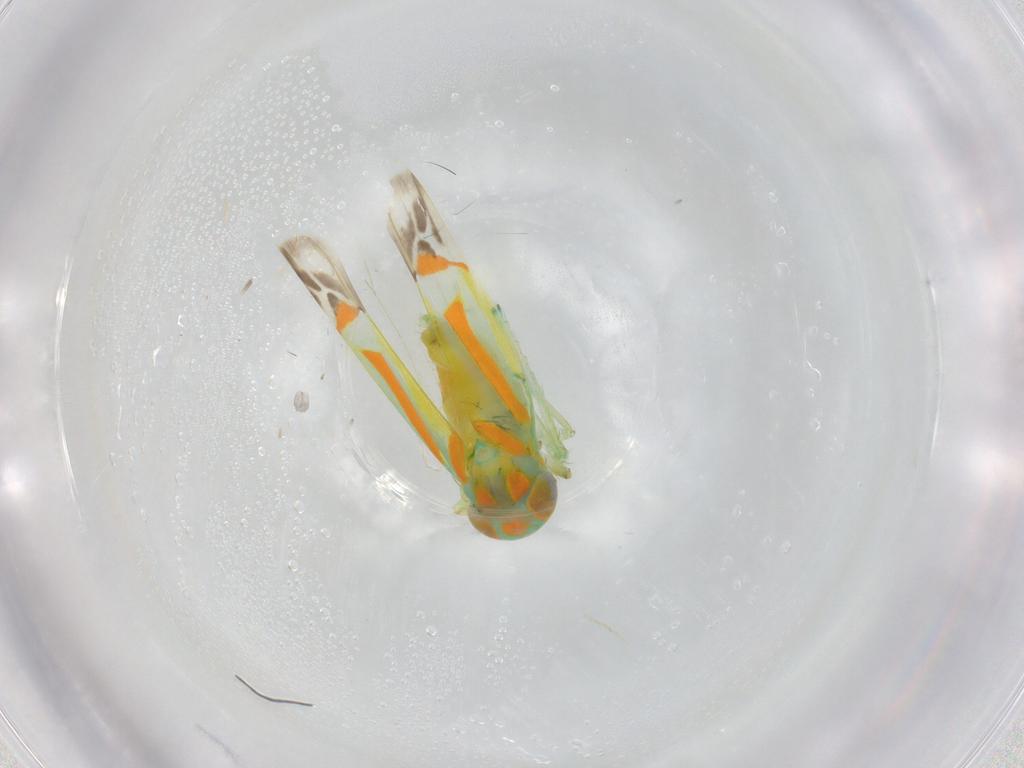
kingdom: Animalia
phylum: Arthropoda
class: Insecta
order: Hemiptera
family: Cicadellidae
